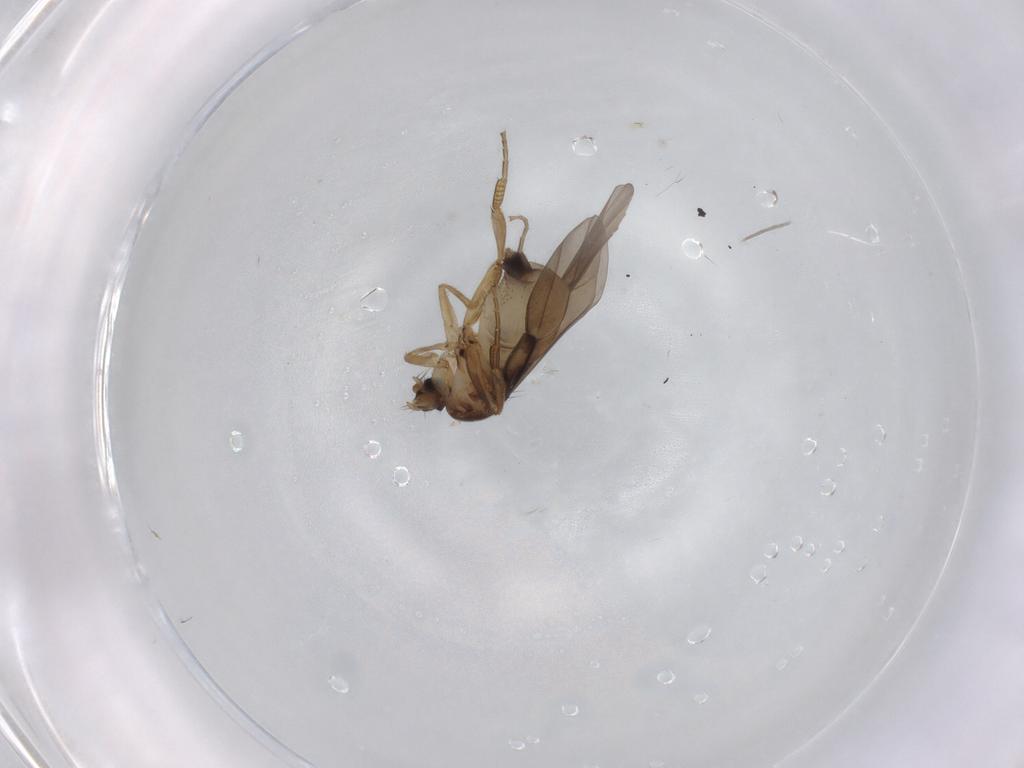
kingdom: Animalia
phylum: Arthropoda
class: Insecta
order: Diptera
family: Phoridae
